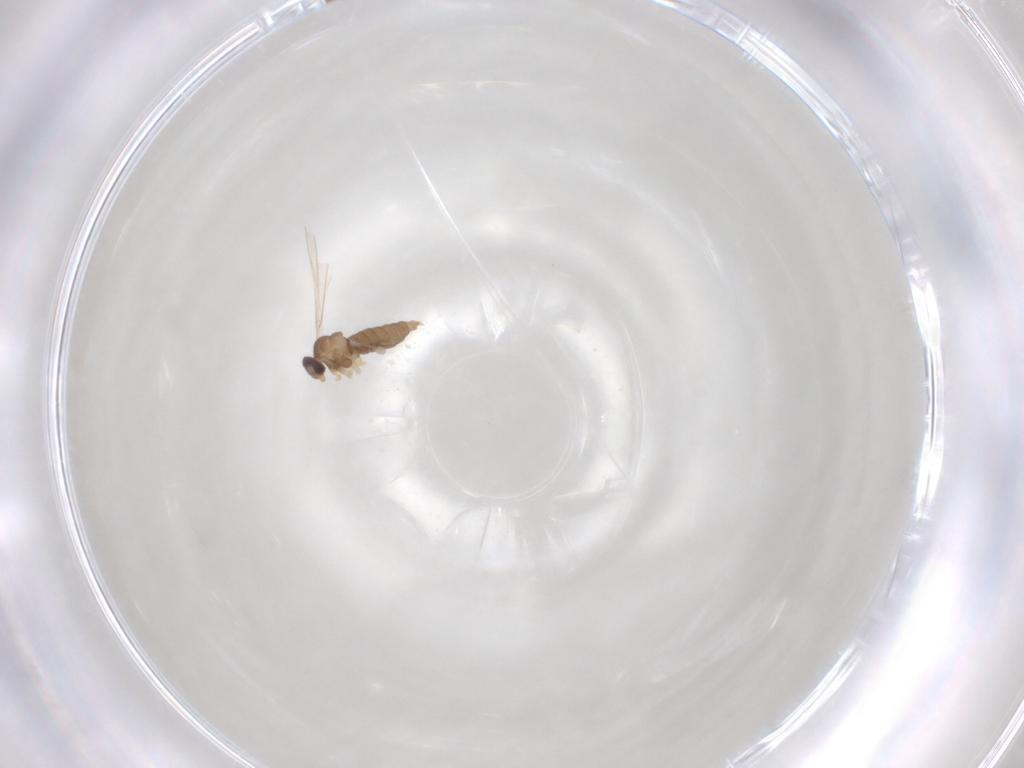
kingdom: Animalia
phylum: Arthropoda
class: Insecta
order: Diptera
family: Cecidomyiidae
